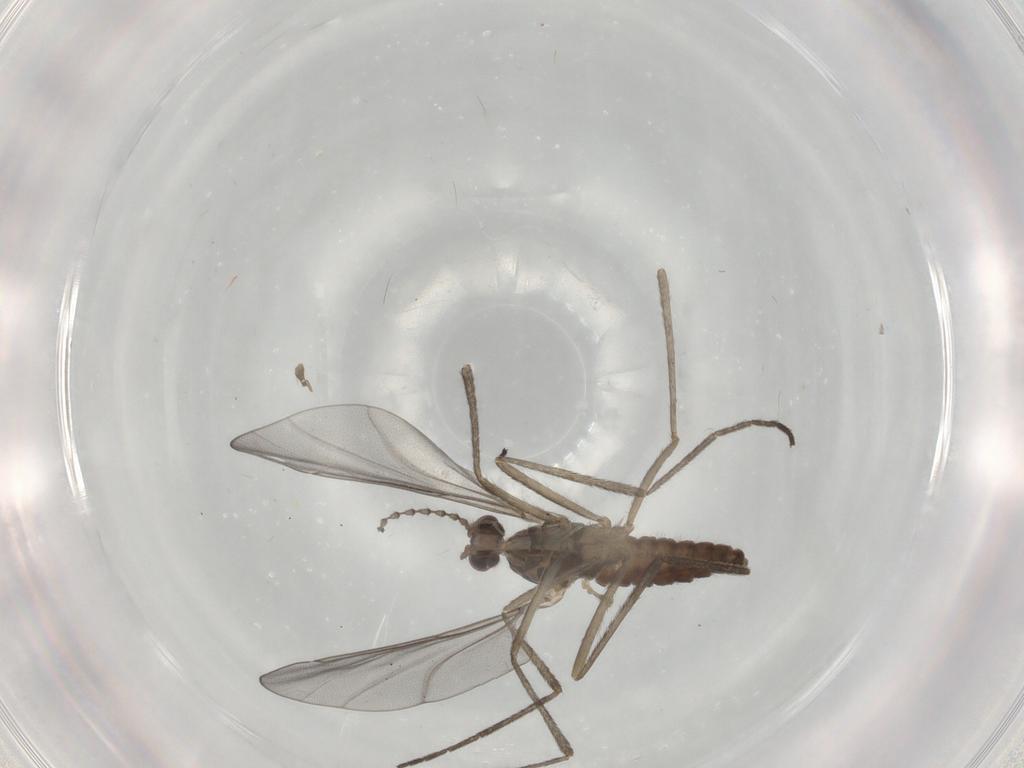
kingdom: Animalia
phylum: Arthropoda
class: Insecta
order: Diptera
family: Cecidomyiidae
